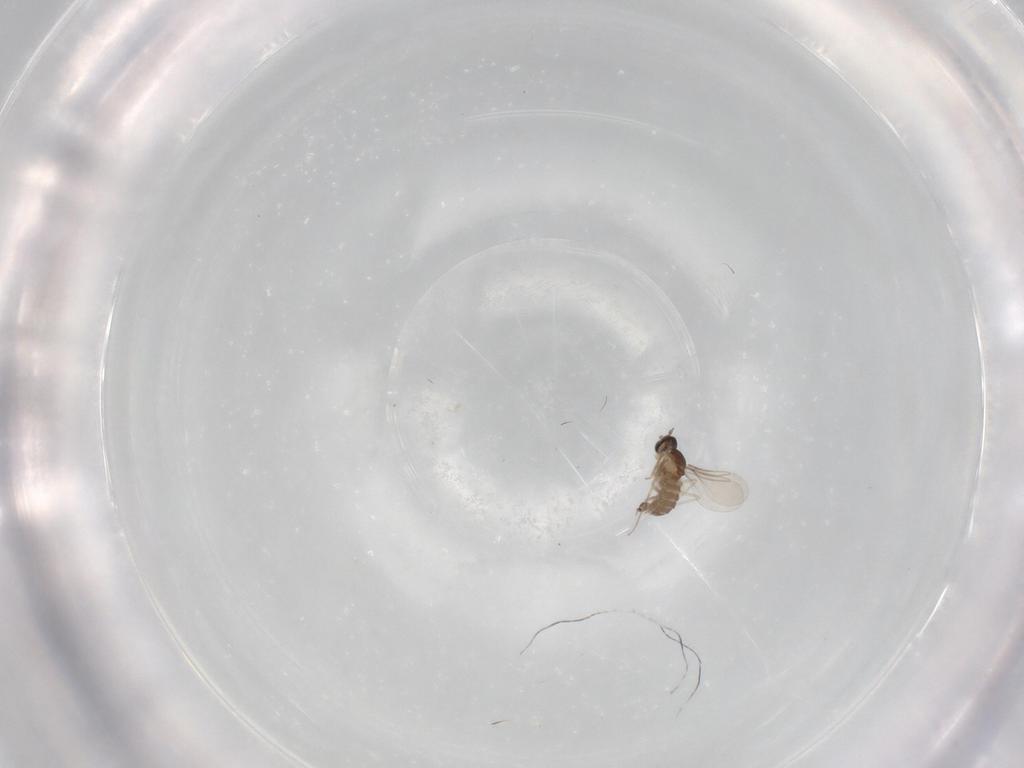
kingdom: Animalia
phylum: Arthropoda
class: Insecta
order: Diptera
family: Cecidomyiidae
